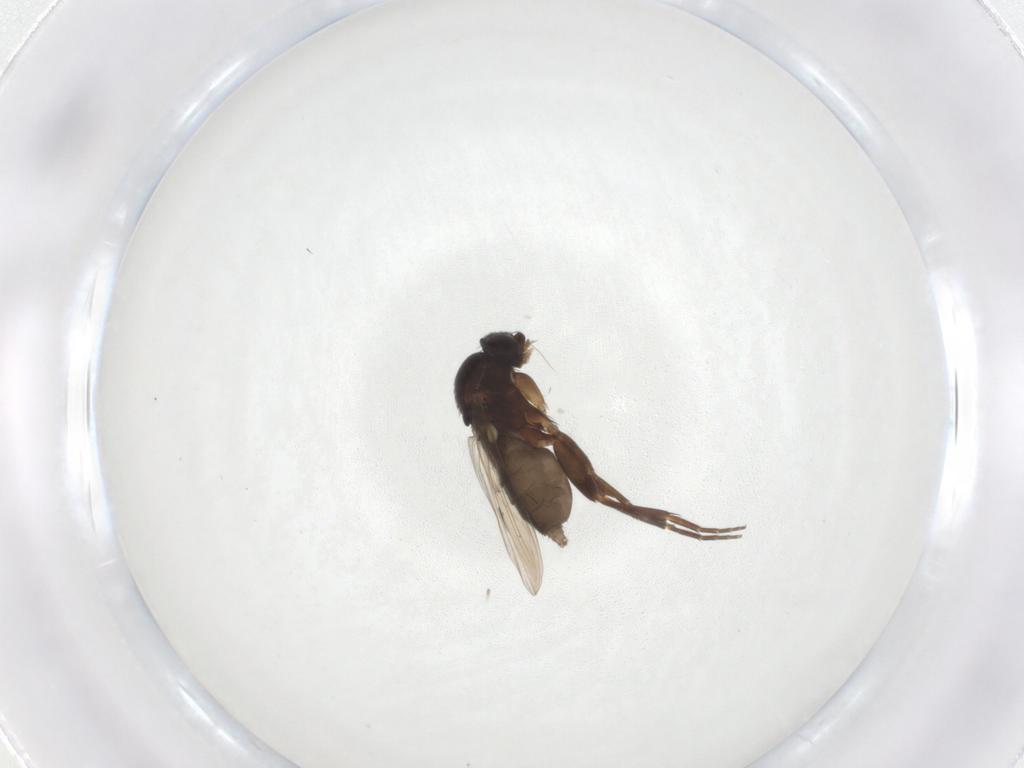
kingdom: Animalia
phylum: Arthropoda
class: Insecta
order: Diptera
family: Phoridae
